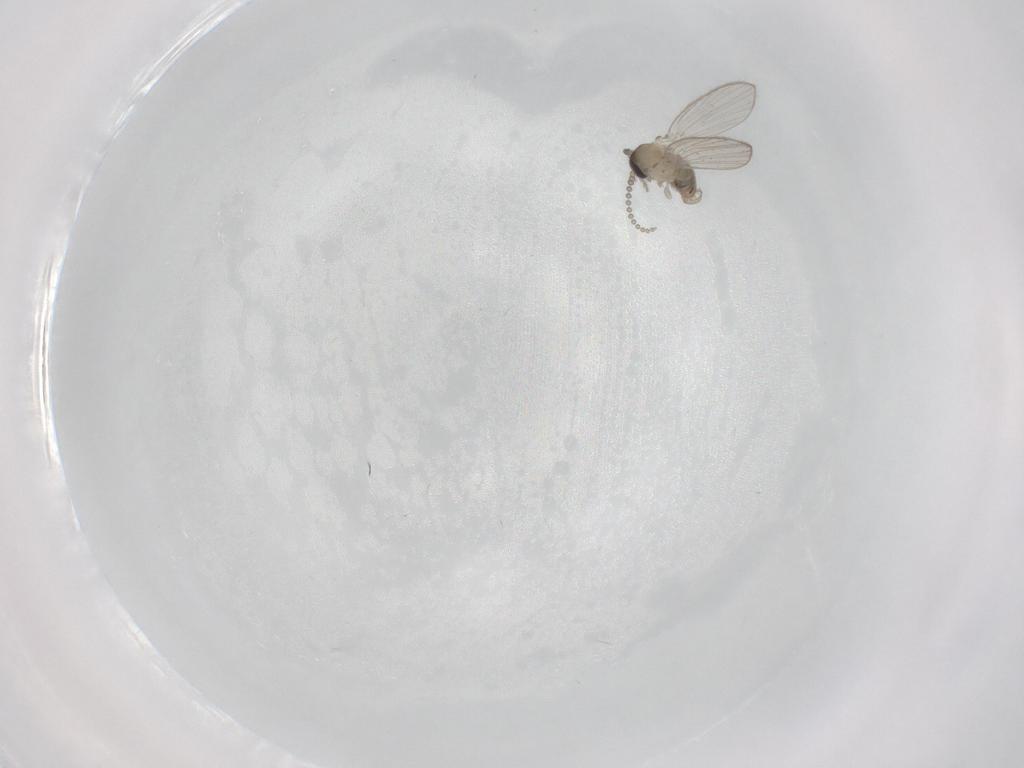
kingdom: Animalia
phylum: Arthropoda
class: Insecta
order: Diptera
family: Psychodidae
